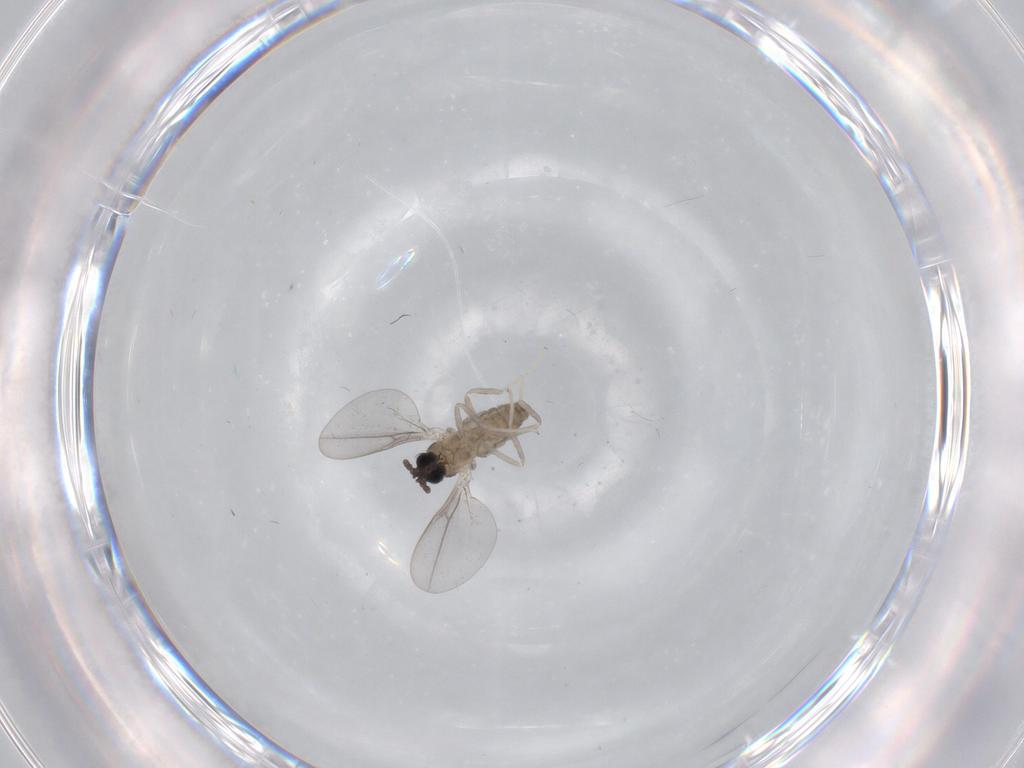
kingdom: Animalia
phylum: Arthropoda
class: Insecta
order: Diptera
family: Cecidomyiidae
